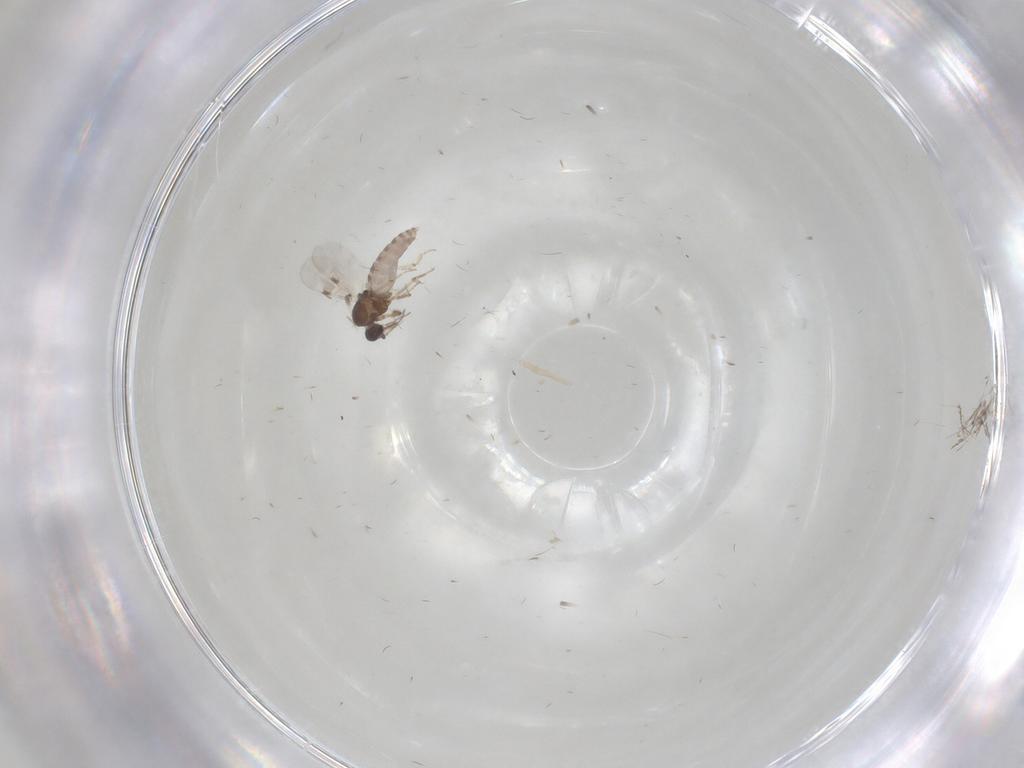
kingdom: Animalia
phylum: Arthropoda
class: Insecta
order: Diptera
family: Cecidomyiidae
